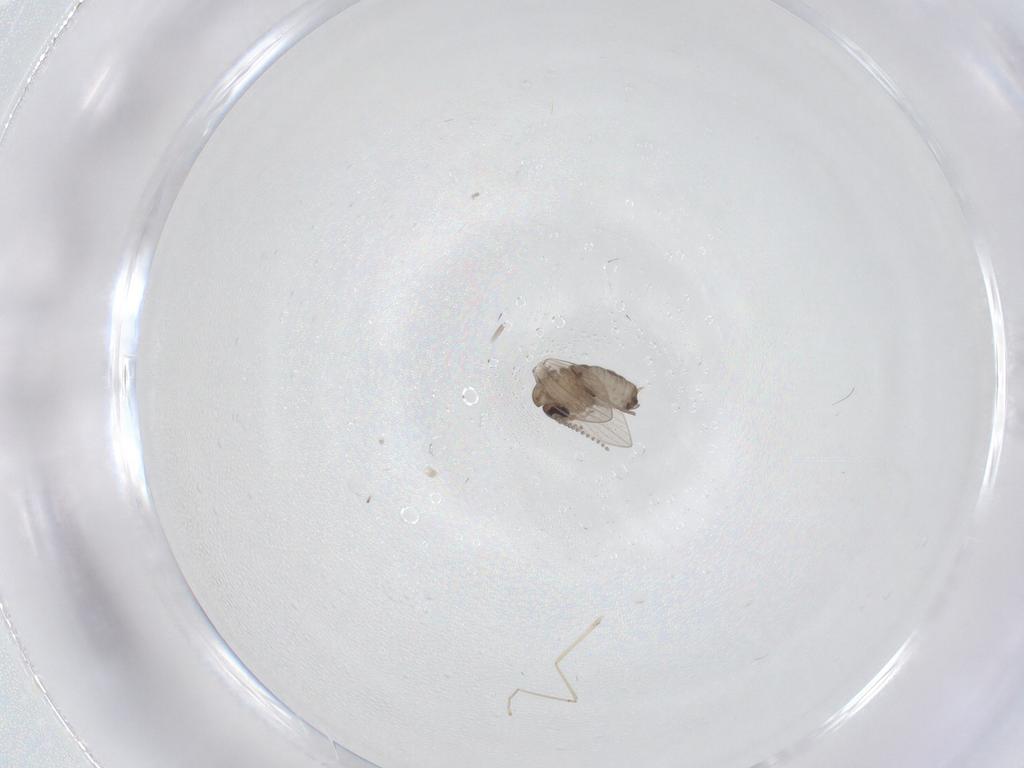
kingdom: Animalia
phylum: Arthropoda
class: Insecta
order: Diptera
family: Psychodidae
